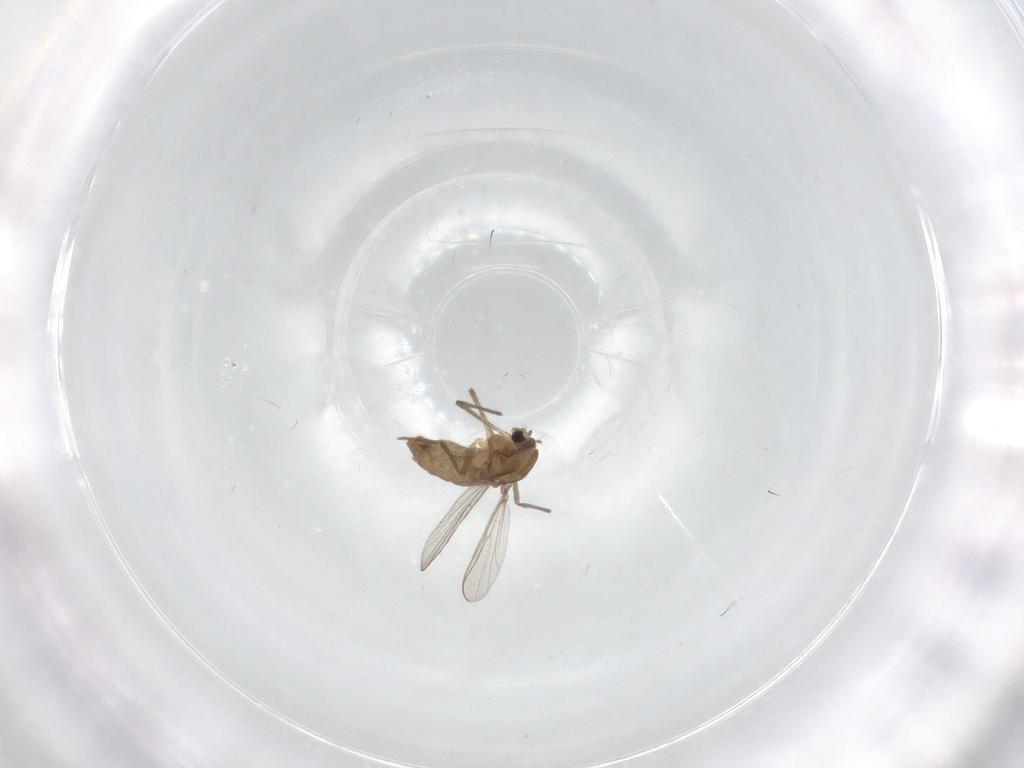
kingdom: Animalia
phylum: Arthropoda
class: Insecta
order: Diptera
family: Sciaridae
